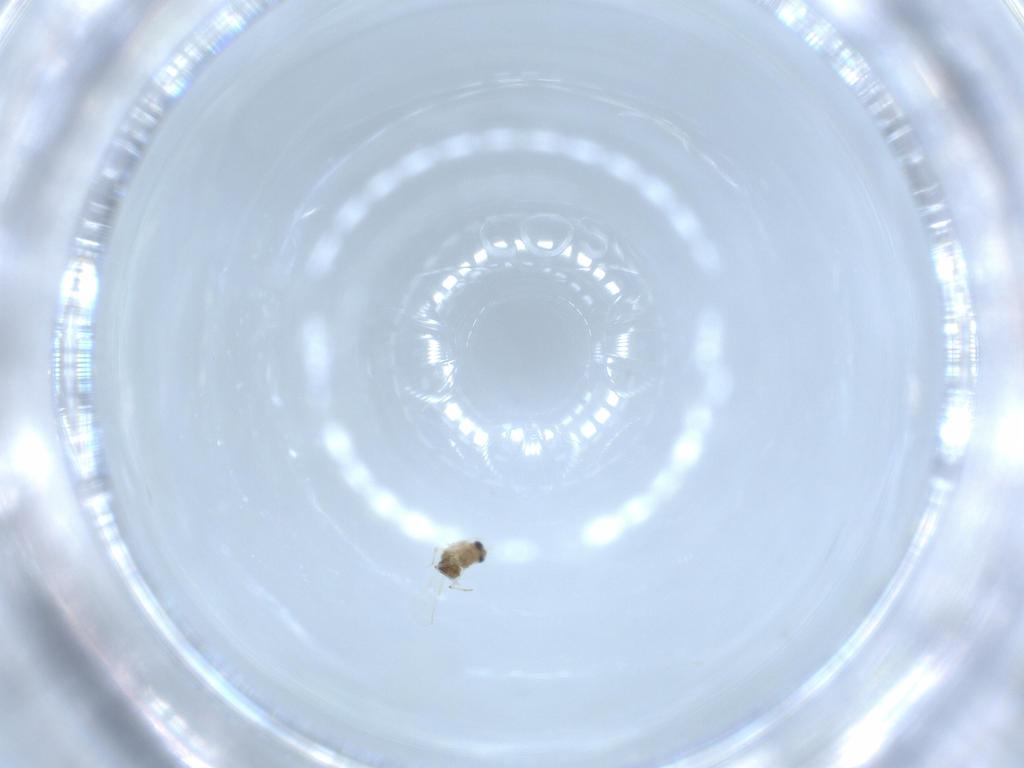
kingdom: Animalia
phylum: Arthropoda
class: Insecta
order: Diptera
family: Chironomidae
